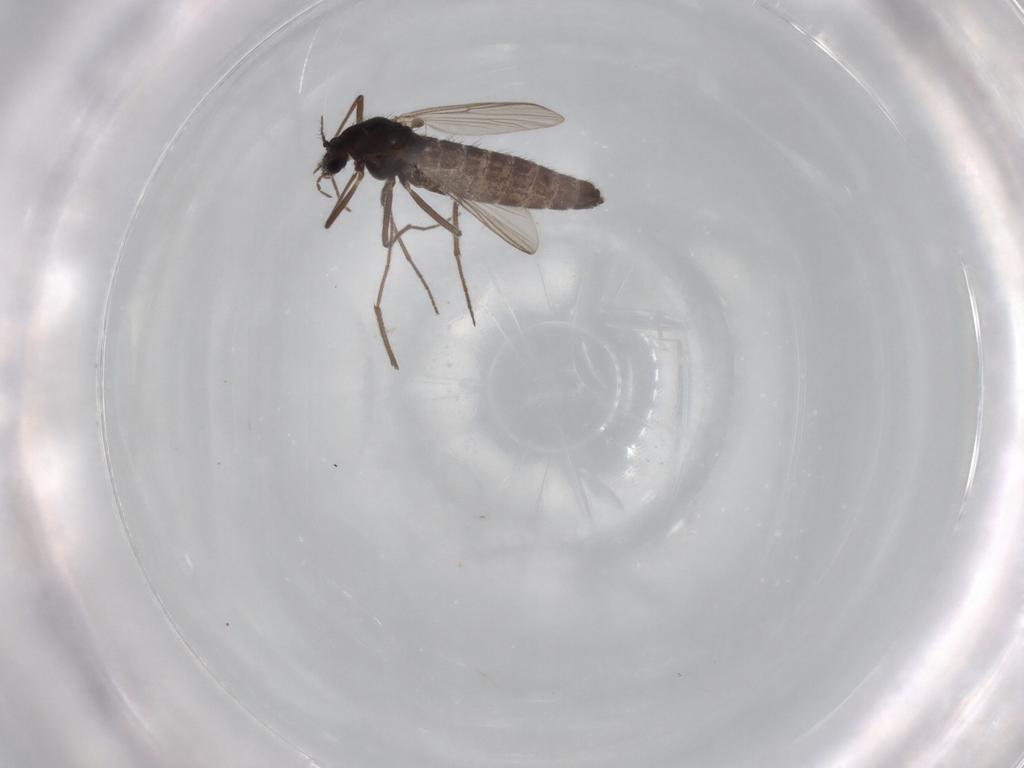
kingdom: Animalia
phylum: Arthropoda
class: Insecta
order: Diptera
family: Chironomidae
